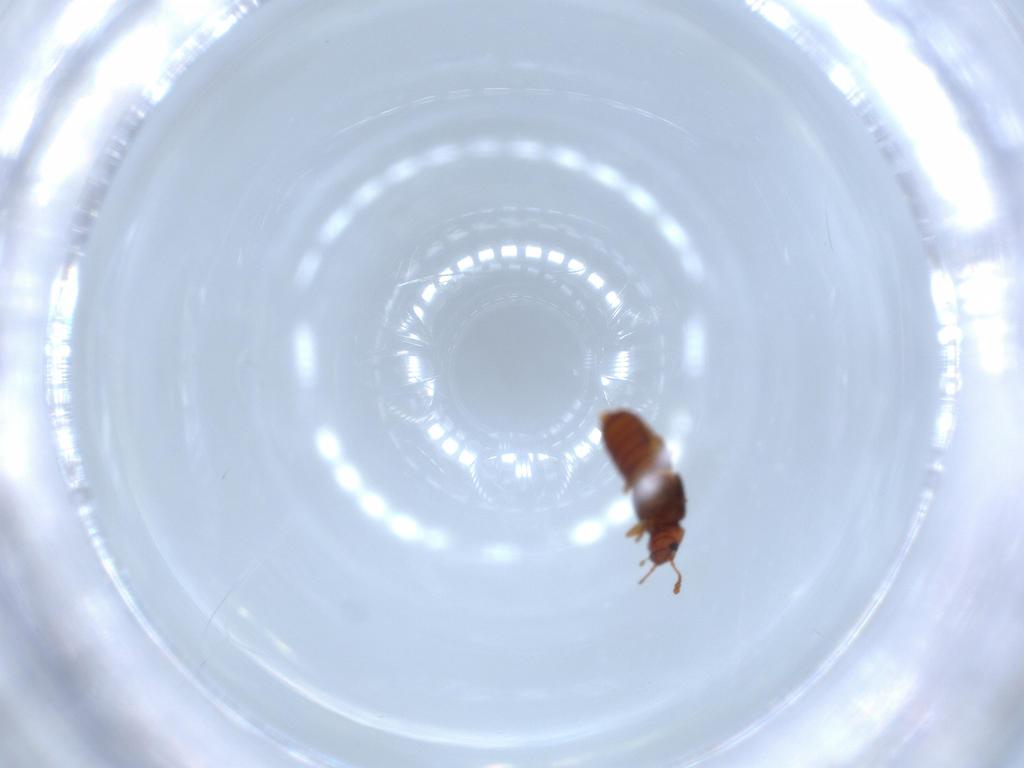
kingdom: Animalia
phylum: Arthropoda
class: Insecta
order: Coleoptera
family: Staphylinidae
